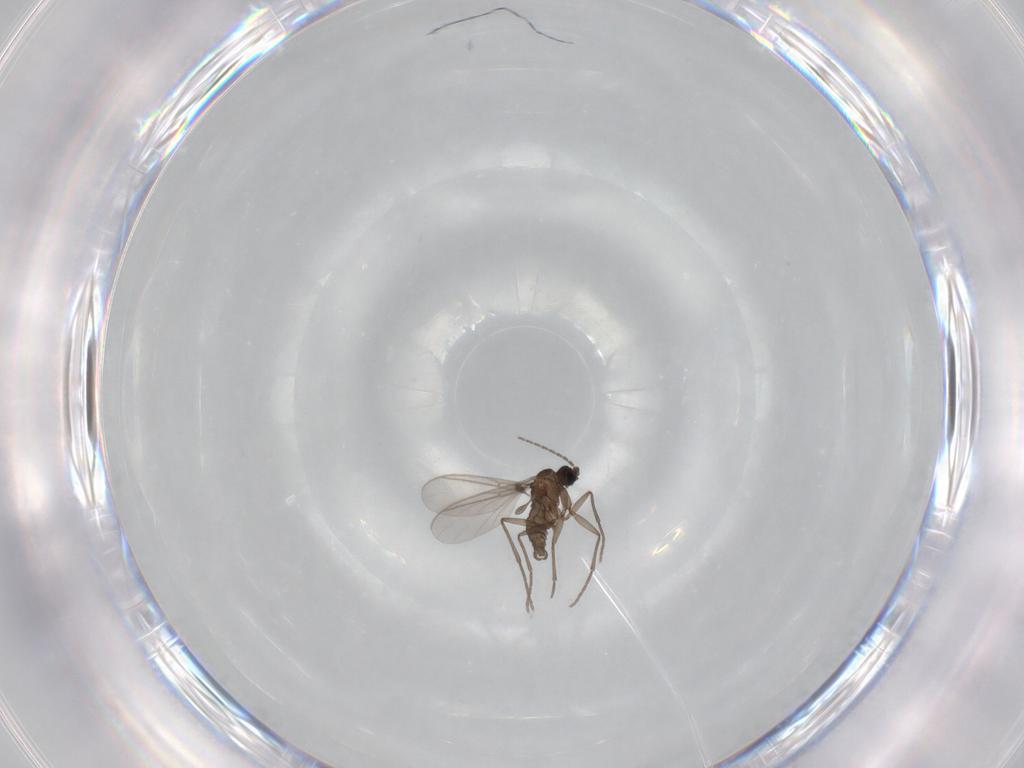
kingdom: Animalia
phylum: Arthropoda
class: Insecta
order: Diptera
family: Sciaridae
